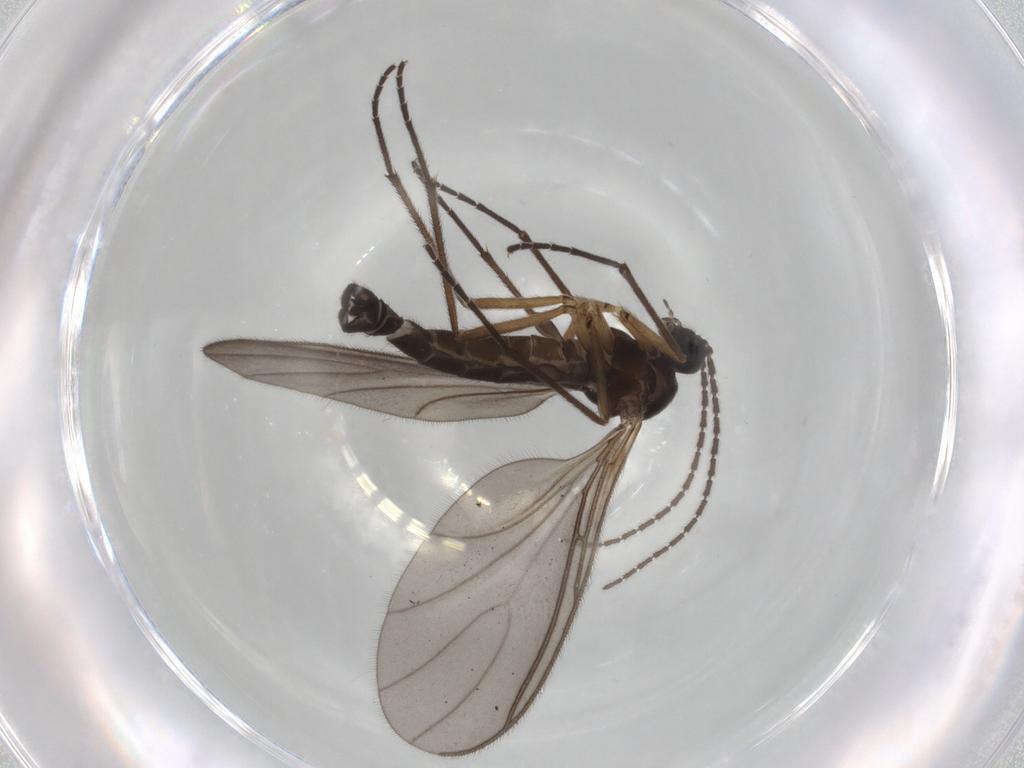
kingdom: Animalia
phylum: Arthropoda
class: Insecta
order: Diptera
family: Sciaridae
